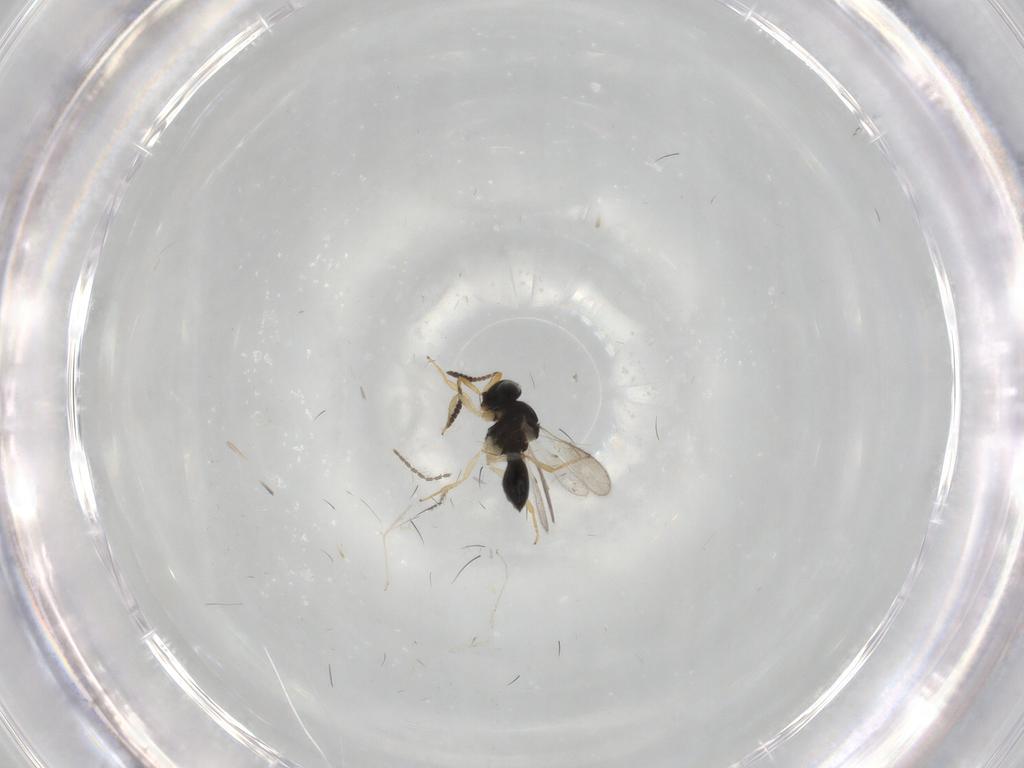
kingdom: Animalia
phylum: Arthropoda
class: Insecta
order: Hymenoptera
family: Scelionidae
